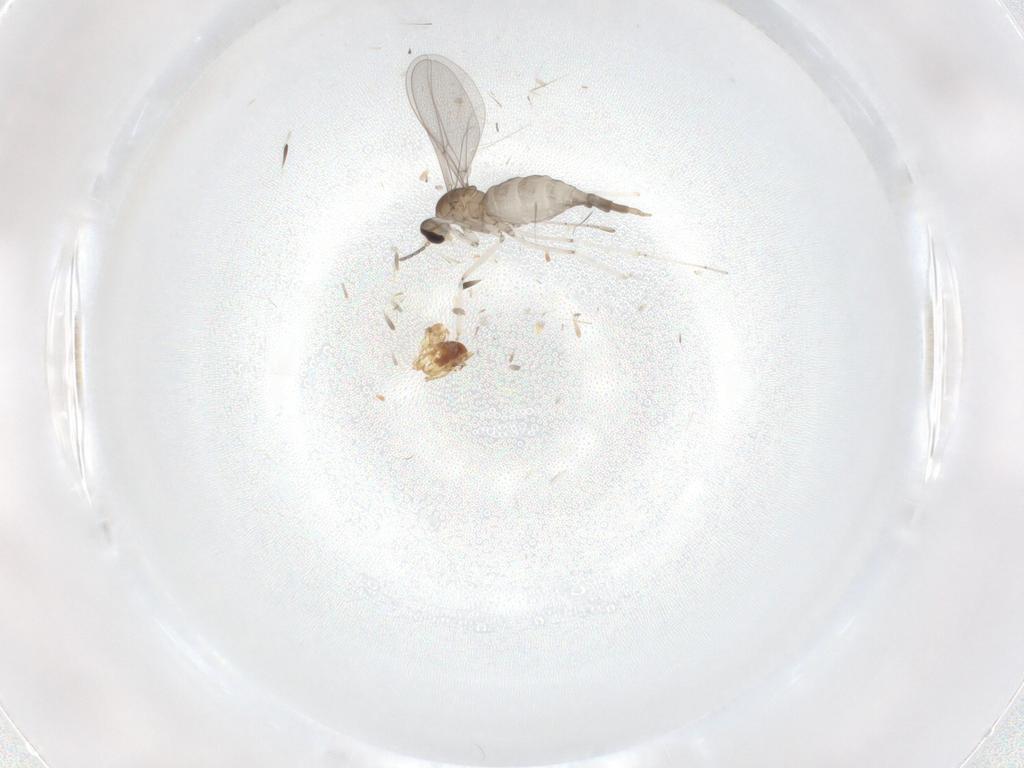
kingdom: Animalia
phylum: Arthropoda
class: Insecta
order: Diptera
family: Cecidomyiidae
